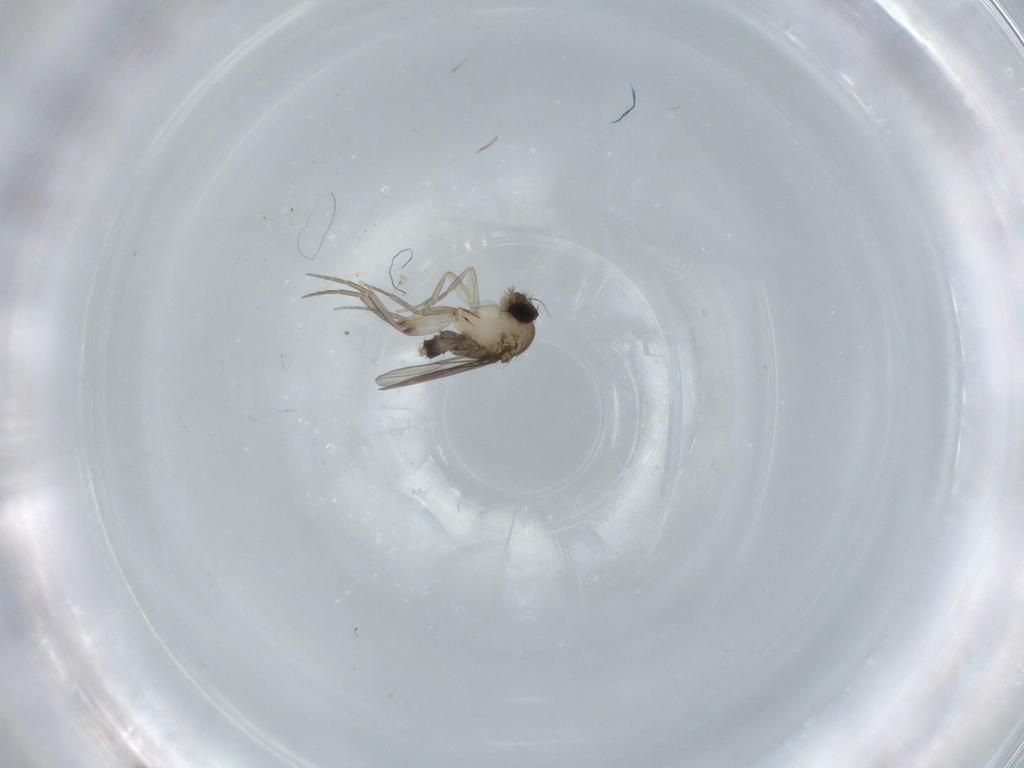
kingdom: Animalia
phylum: Arthropoda
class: Insecta
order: Diptera
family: Phoridae
